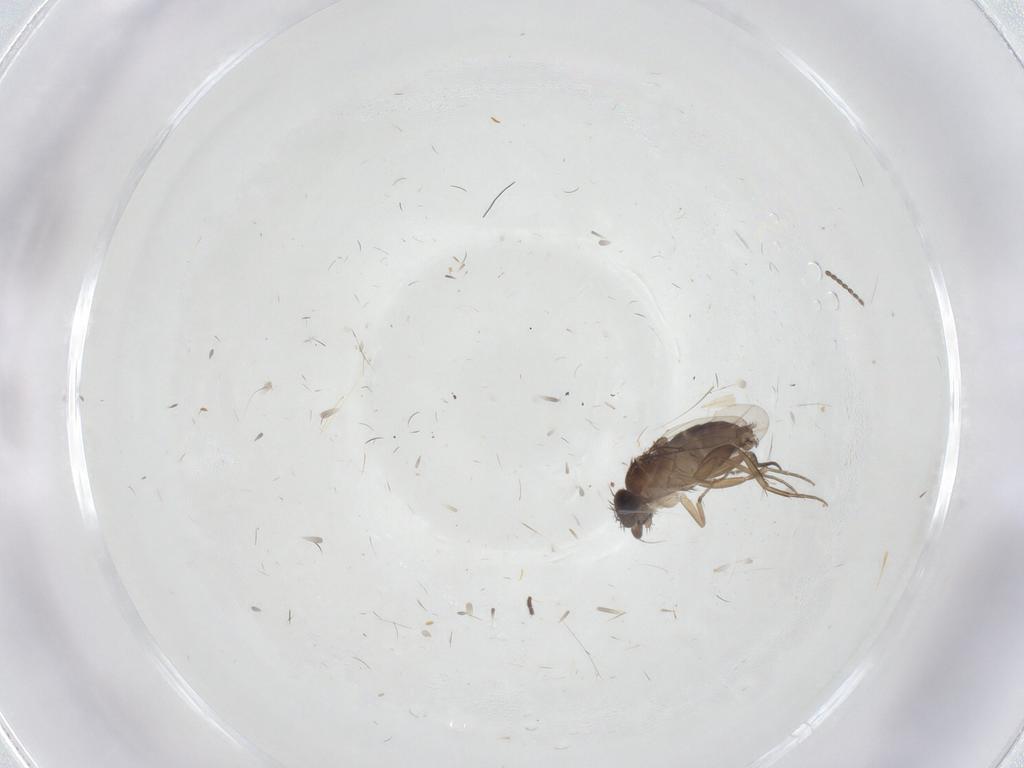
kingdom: Animalia
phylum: Arthropoda
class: Insecta
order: Diptera
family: Phoridae
